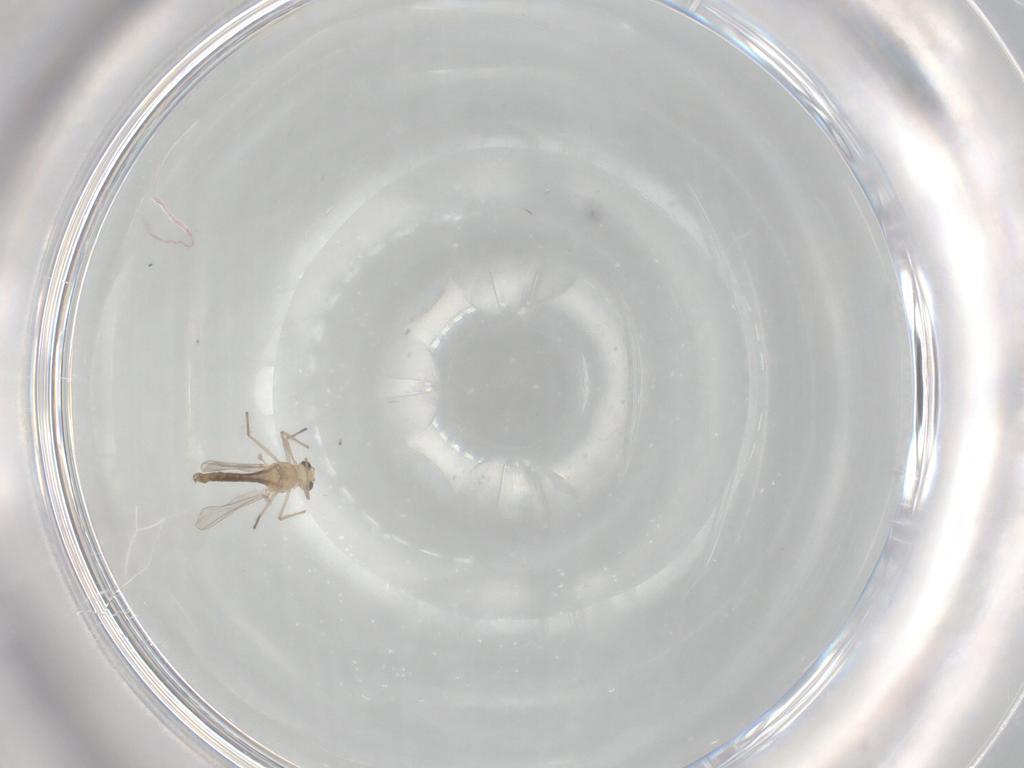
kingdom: Animalia
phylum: Arthropoda
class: Insecta
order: Diptera
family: Chironomidae
